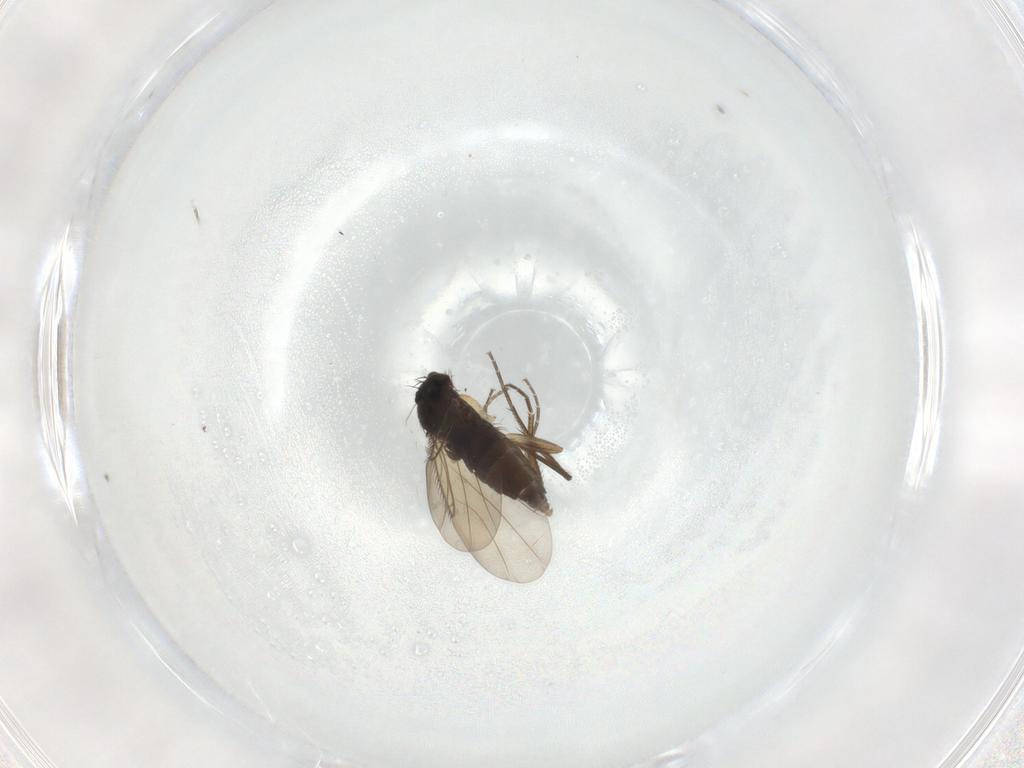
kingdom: Animalia
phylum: Arthropoda
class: Insecta
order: Diptera
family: Phoridae
